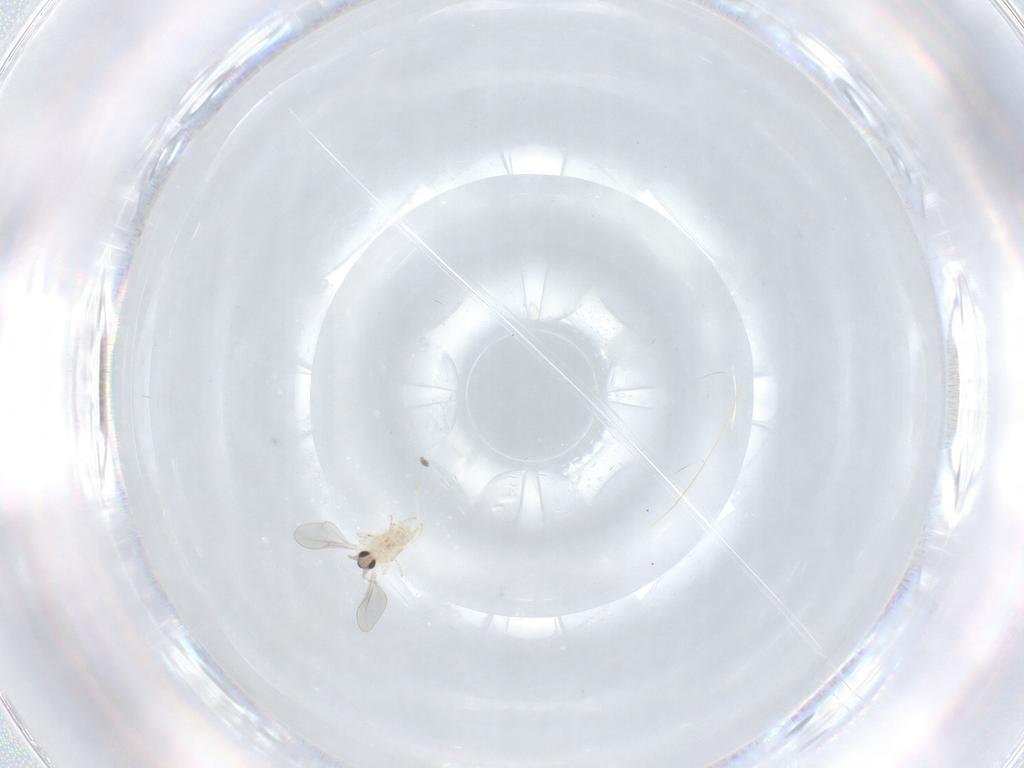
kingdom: Animalia
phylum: Arthropoda
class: Insecta
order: Diptera
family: Cecidomyiidae
